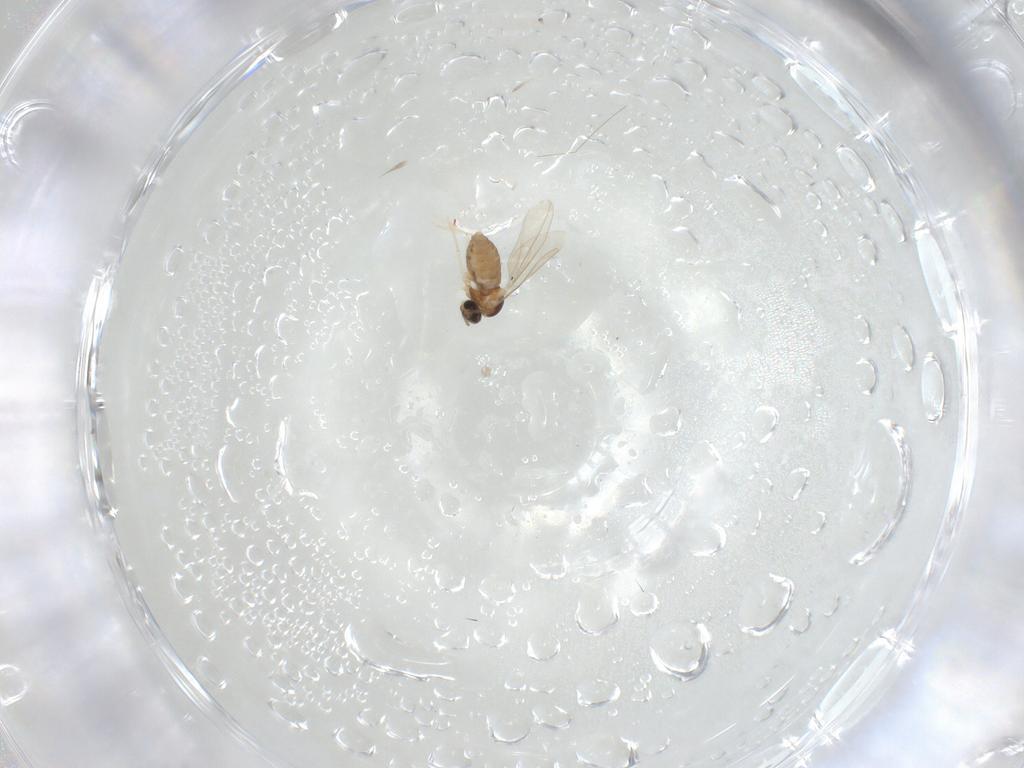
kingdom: Animalia
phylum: Arthropoda
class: Insecta
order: Diptera
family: Cecidomyiidae
